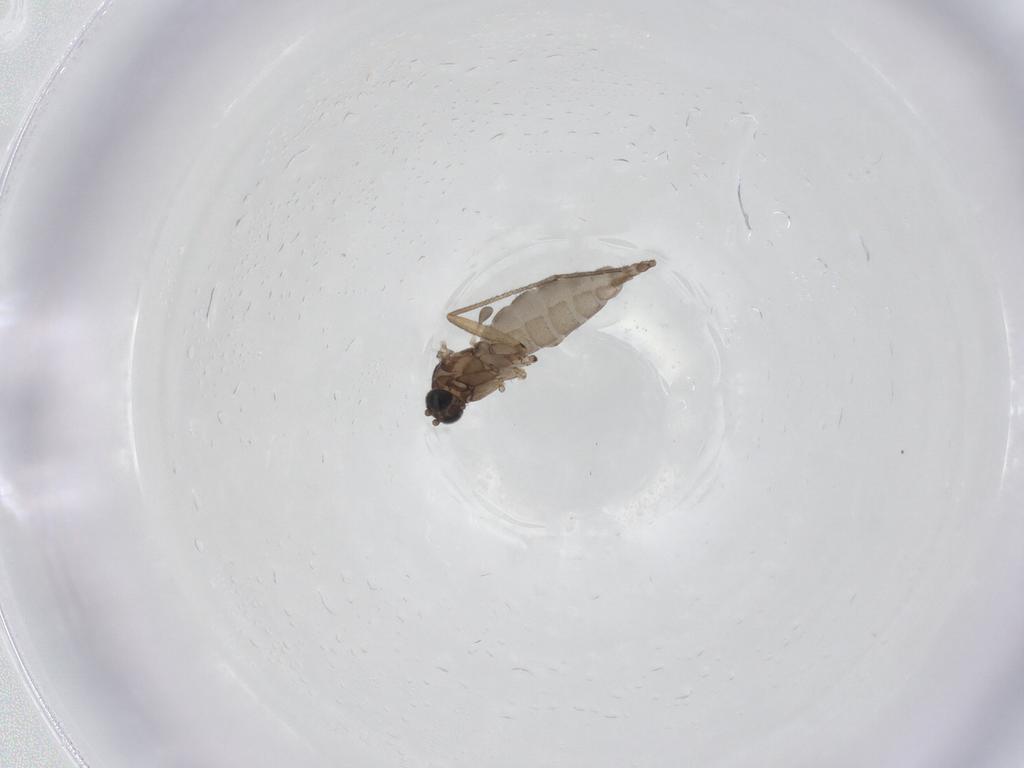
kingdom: Animalia
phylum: Arthropoda
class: Insecta
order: Diptera
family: Sciaridae
